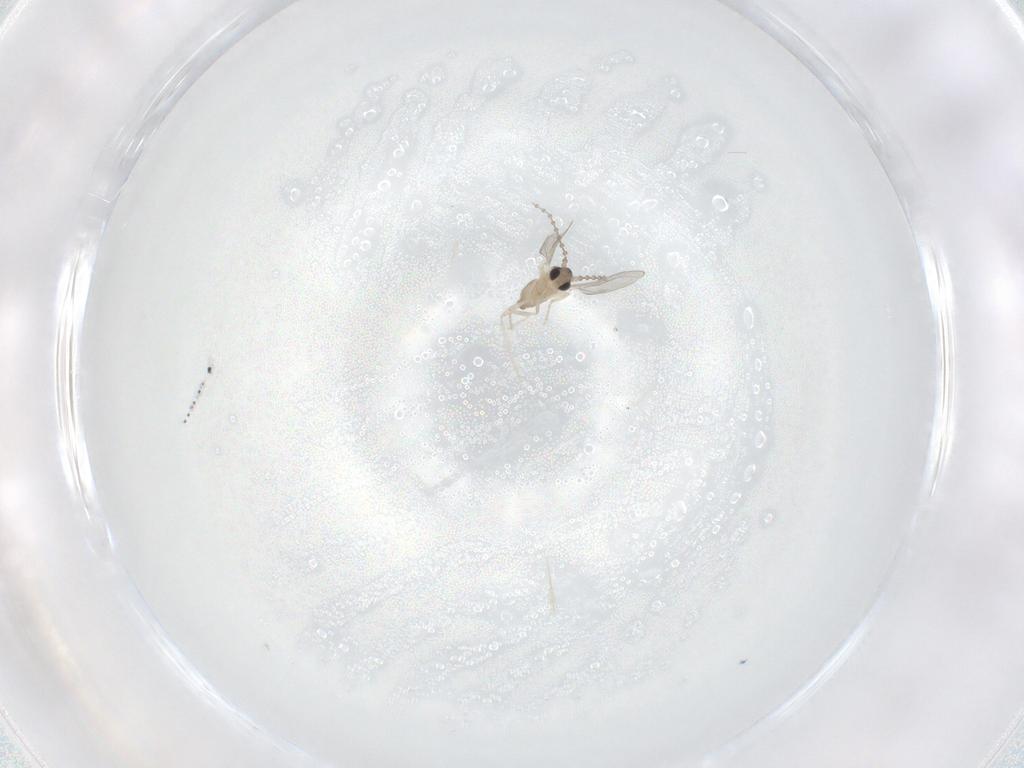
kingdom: Animalia
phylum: Arthropoda
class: Insecta
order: Diptera
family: Cecidomyiidae
